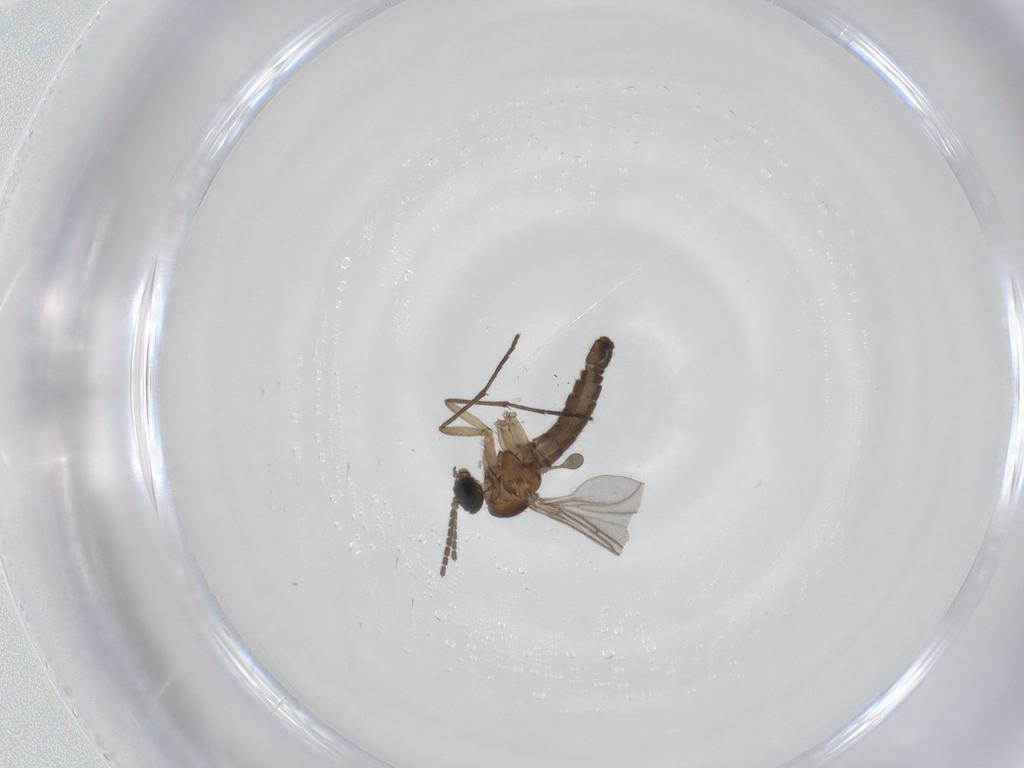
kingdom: Animalia
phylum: Arthropoda
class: Insecta
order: Diptera
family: Sciaridae
